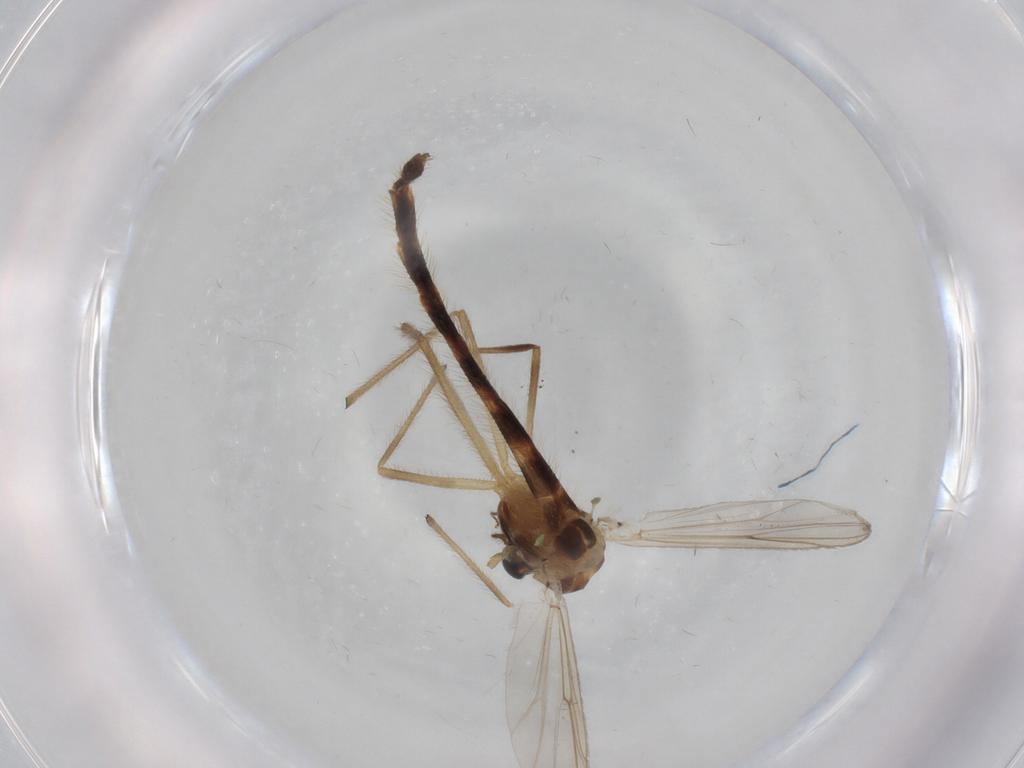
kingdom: Animalia
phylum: Arthropoda
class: Insecta
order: Diptera
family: Chironomidae
